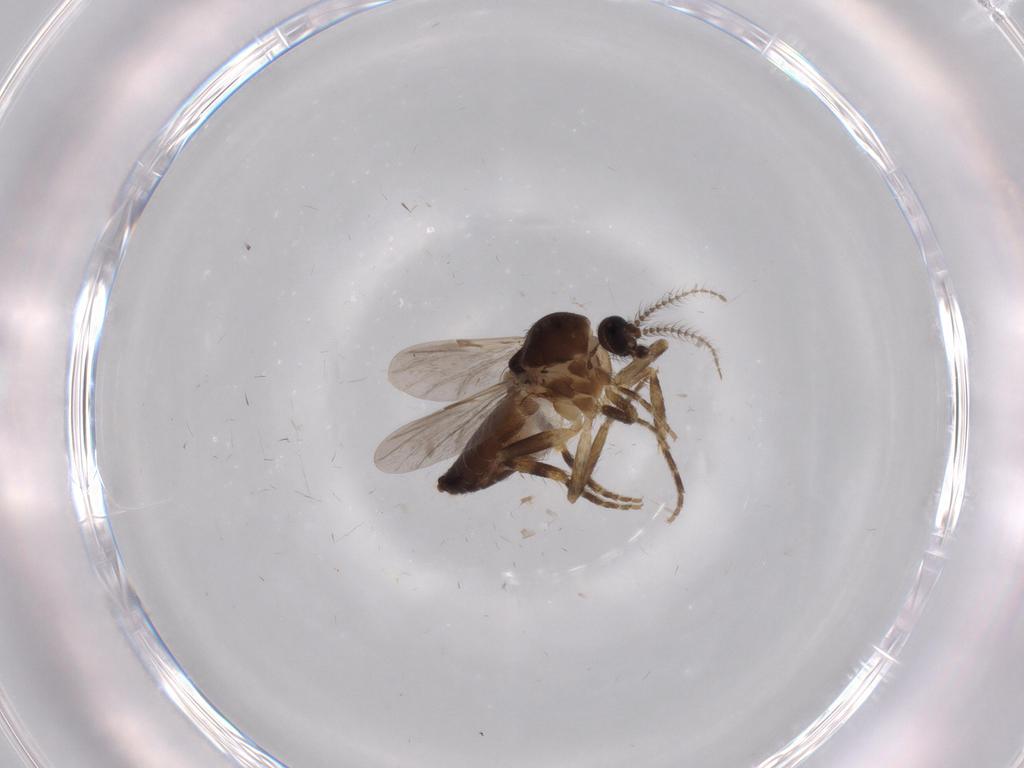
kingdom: Animalia
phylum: Arthropoda
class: Insecta
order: Diptera
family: Ceratopogonidae
